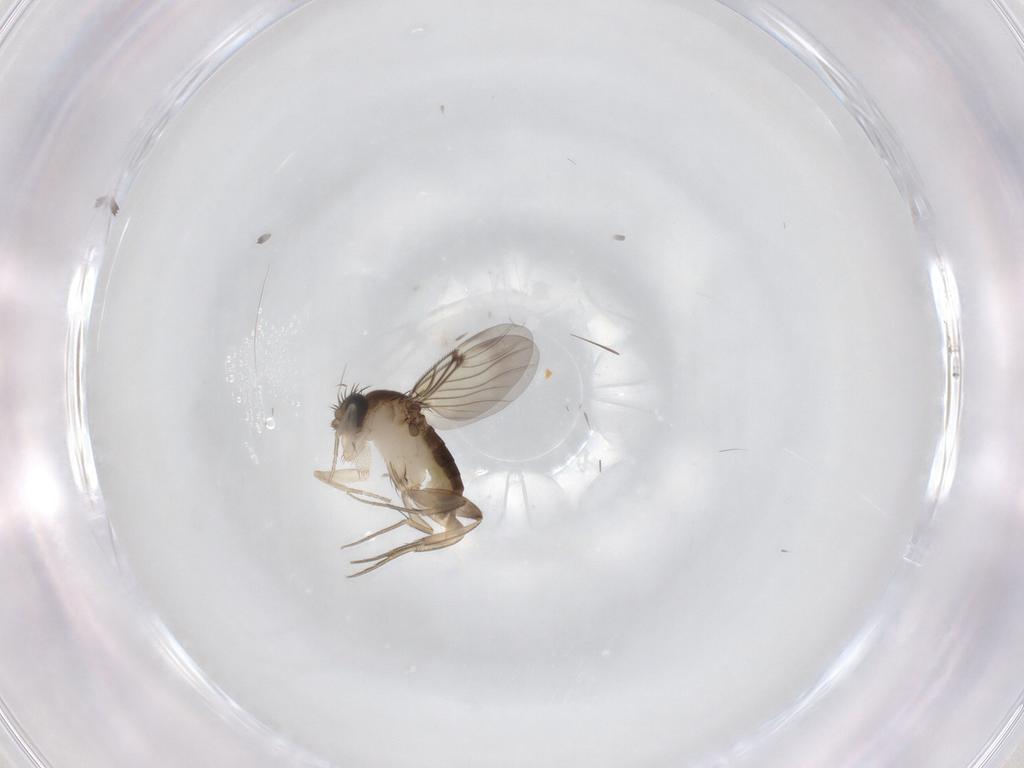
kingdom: Animalia
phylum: Arthropoda
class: Insecta
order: Diptera
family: Phoridae
